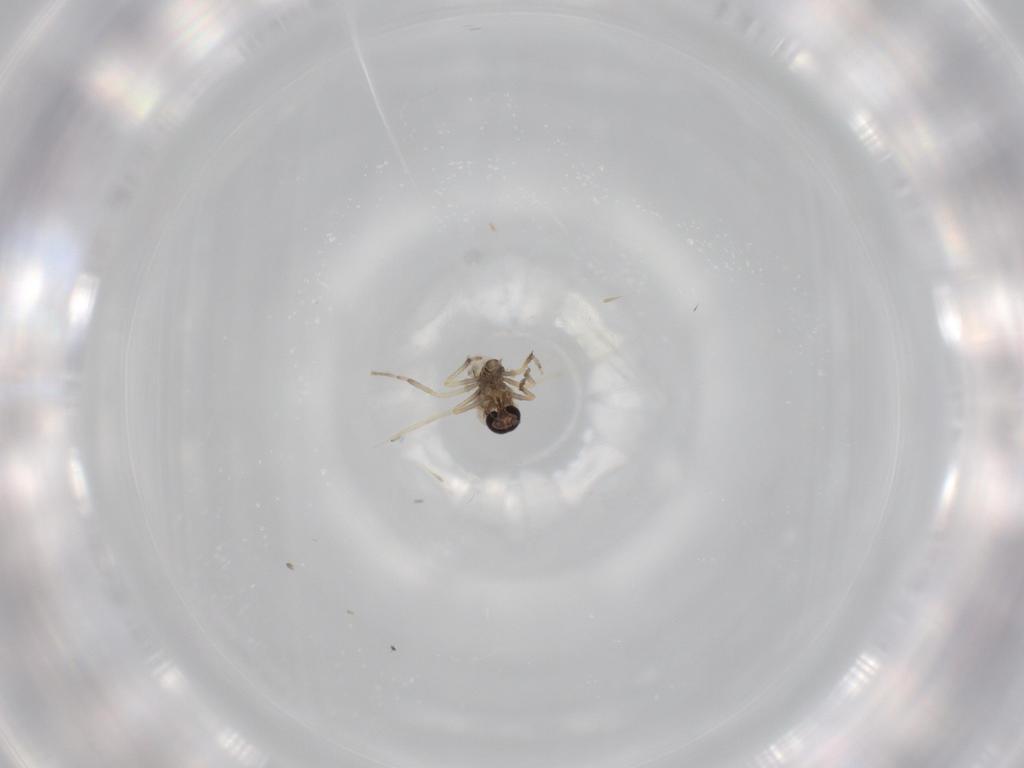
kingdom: Animalia
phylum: Arthropoda
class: Insecta
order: Diptera
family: Ceratopogonidae
